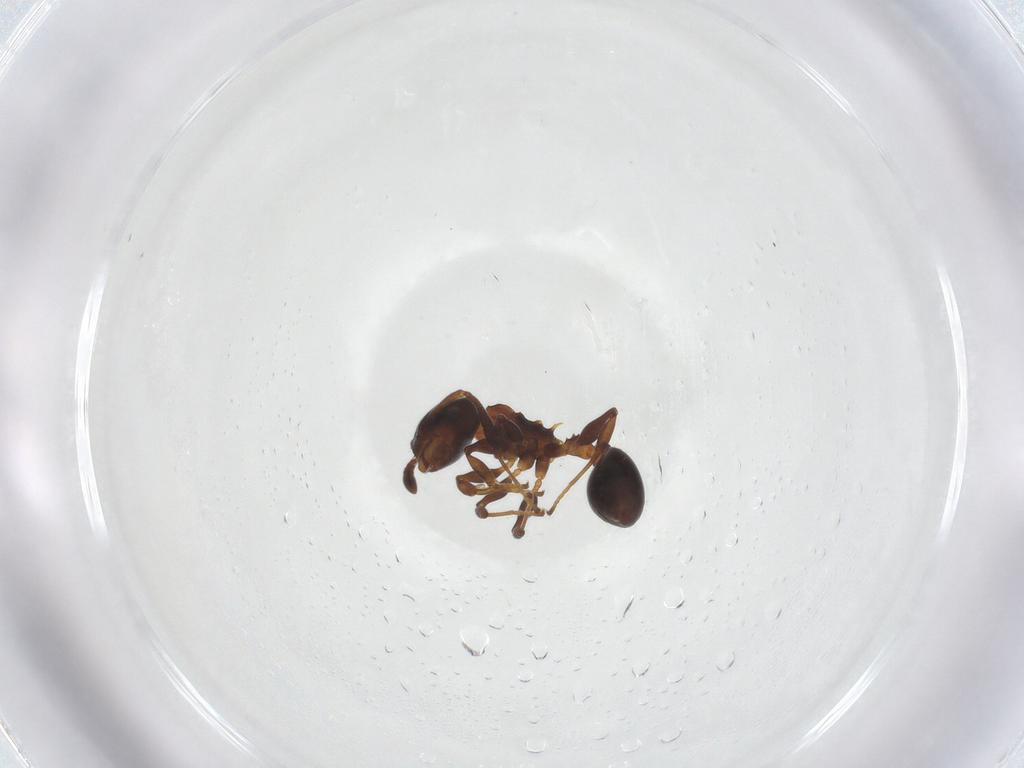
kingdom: Animalia
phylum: Arthropoda
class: Insecta
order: Hymenoptera
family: Formicidae
